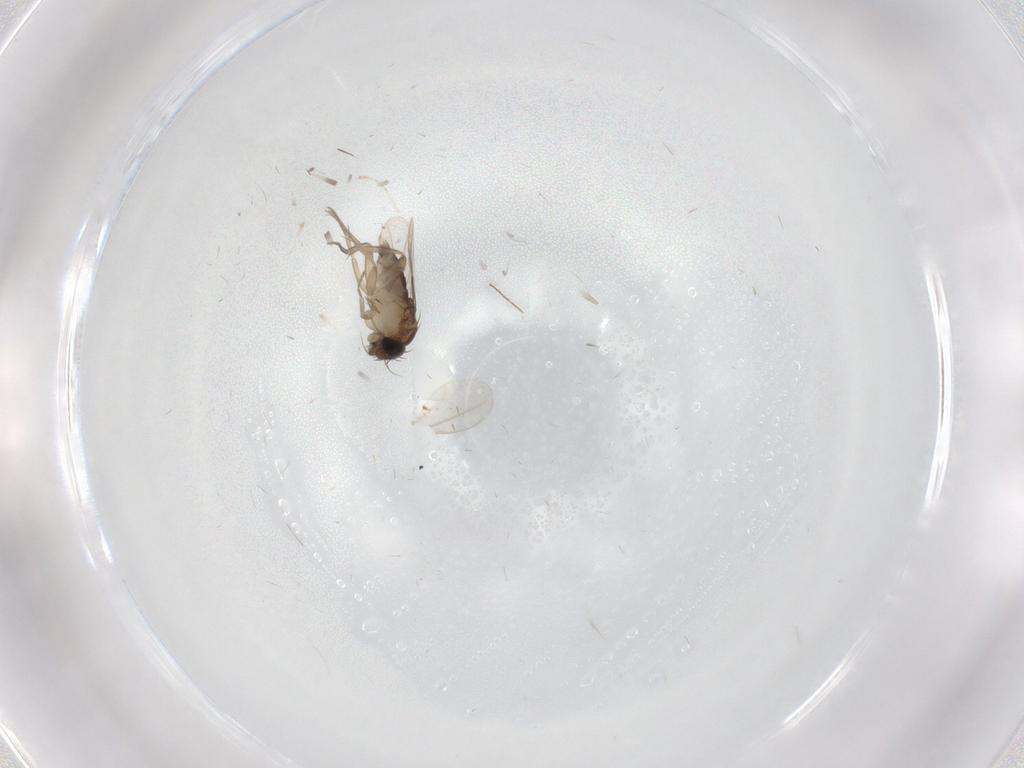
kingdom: Animalia
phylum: Arthropoda
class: Insecta
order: Diptera
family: Phoridae
